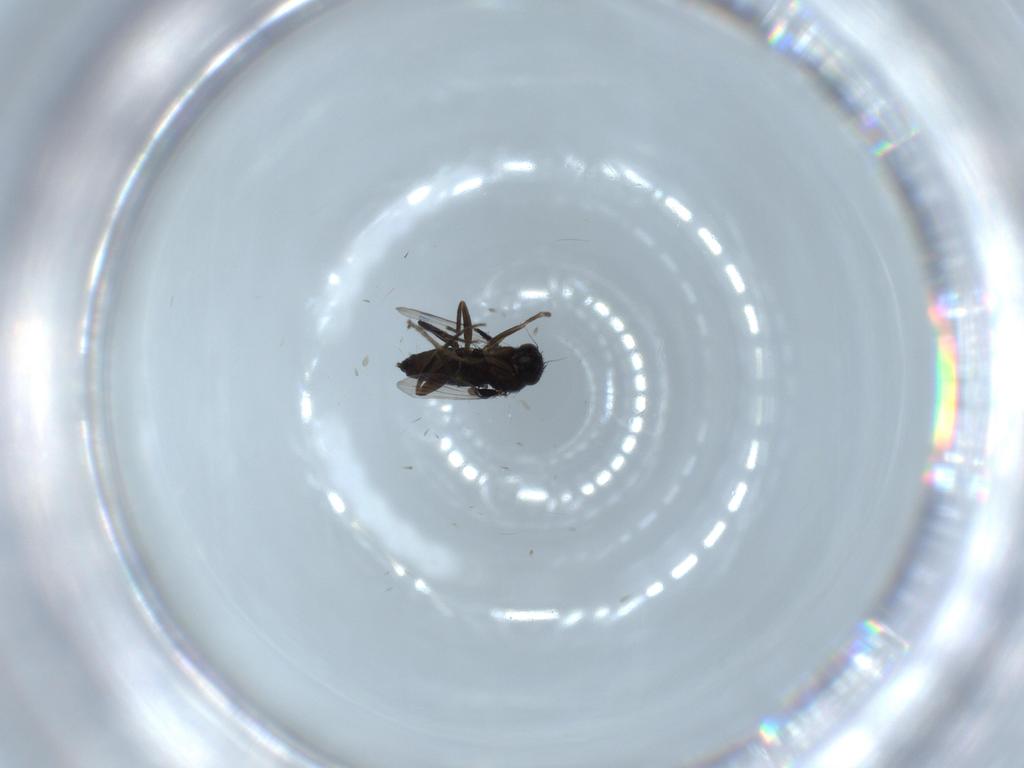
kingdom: Animalia
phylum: Arthropoda
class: Insecta
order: Diptera
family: Phoridae
